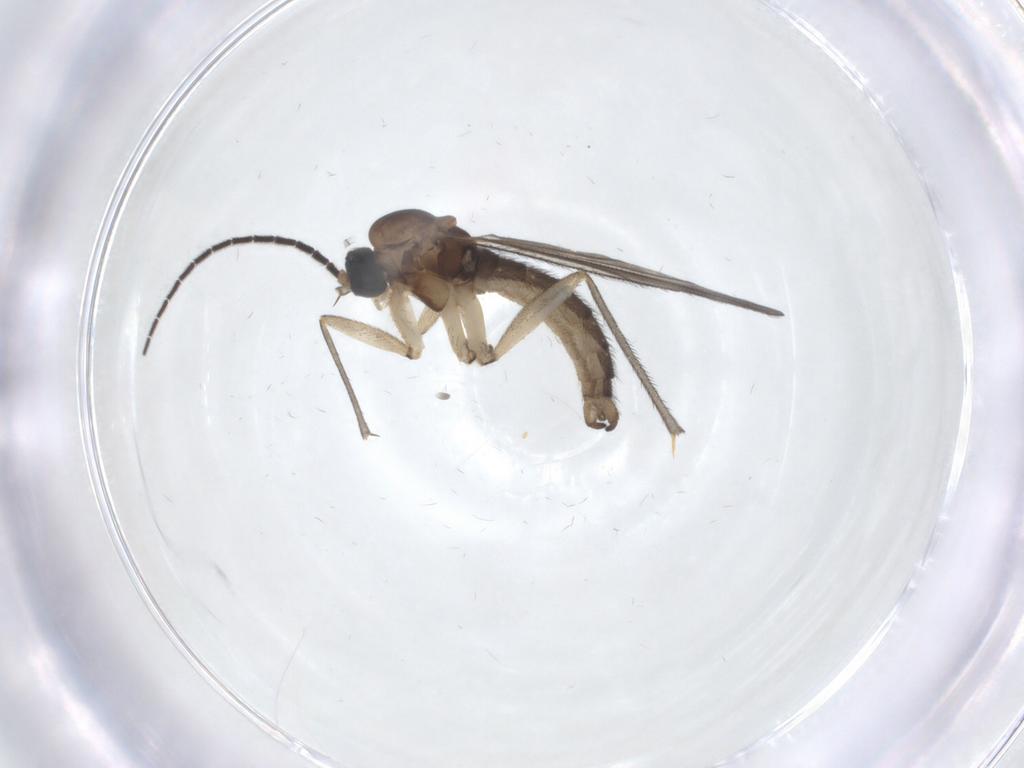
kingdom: Animalia
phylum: Arthropoda
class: Insecta
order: Diptera
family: Sciaridae
